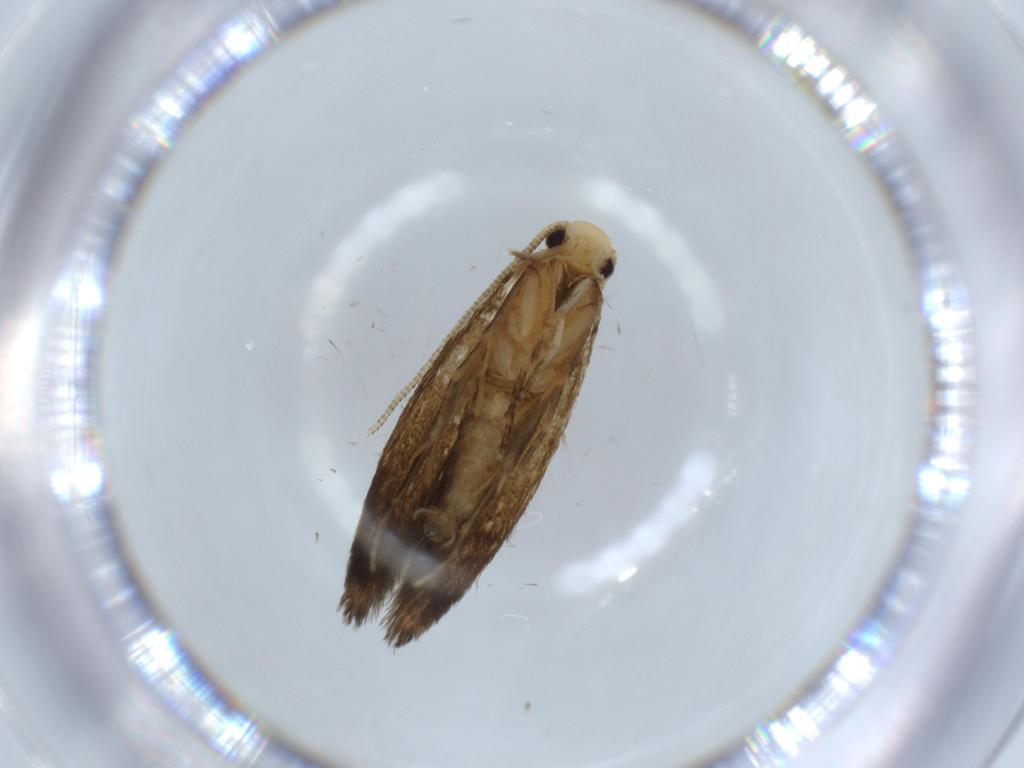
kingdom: Animalia
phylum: Arthropoda
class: Insecta
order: Lepidoptera
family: Tineidae
